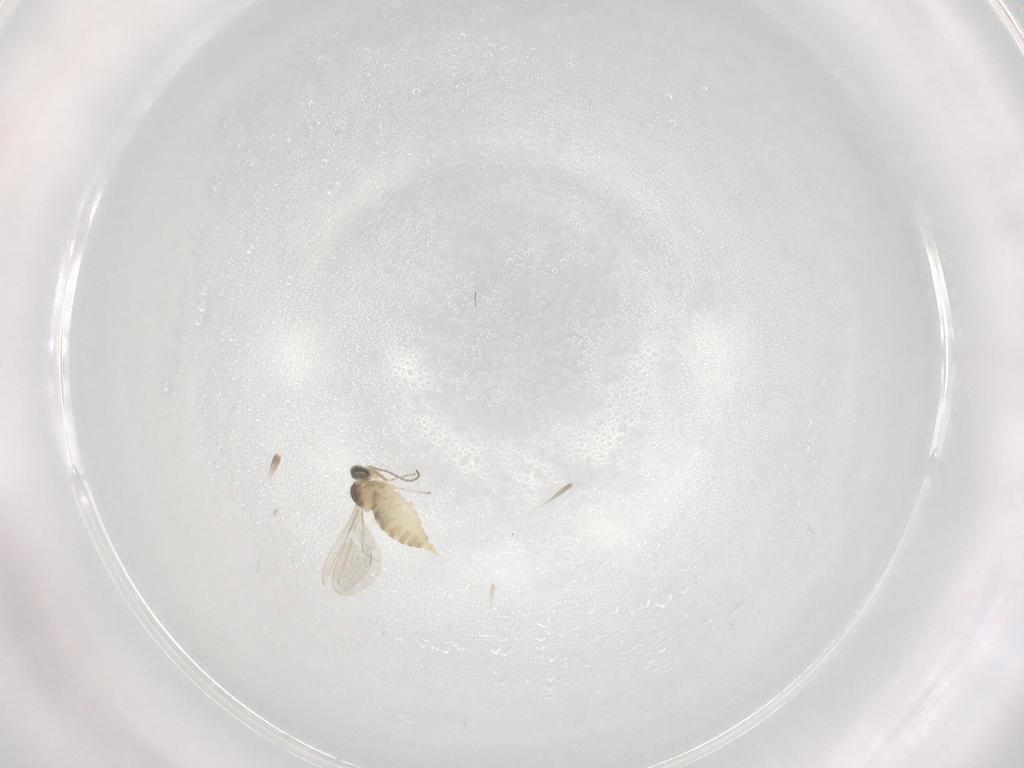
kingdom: Animalia
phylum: Arthropoda
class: Insecta
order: Diptera
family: Cecidomyiidae
